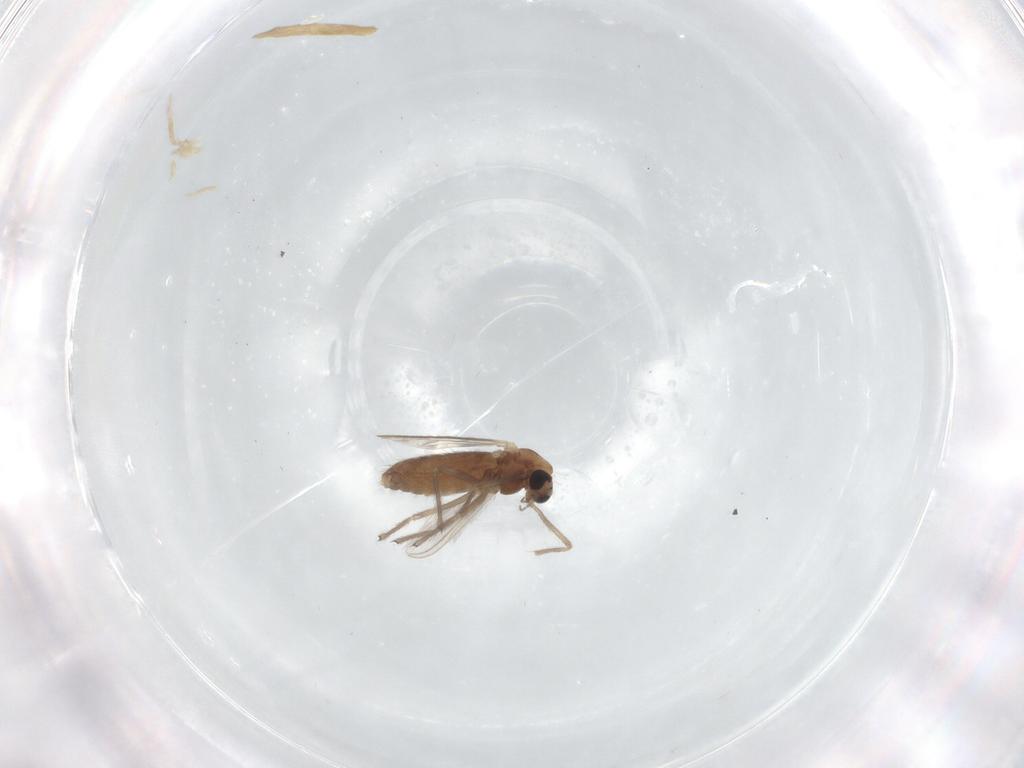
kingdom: Animalia
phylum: Arthropoda
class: Insecta
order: Diptera
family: Chironomidae
